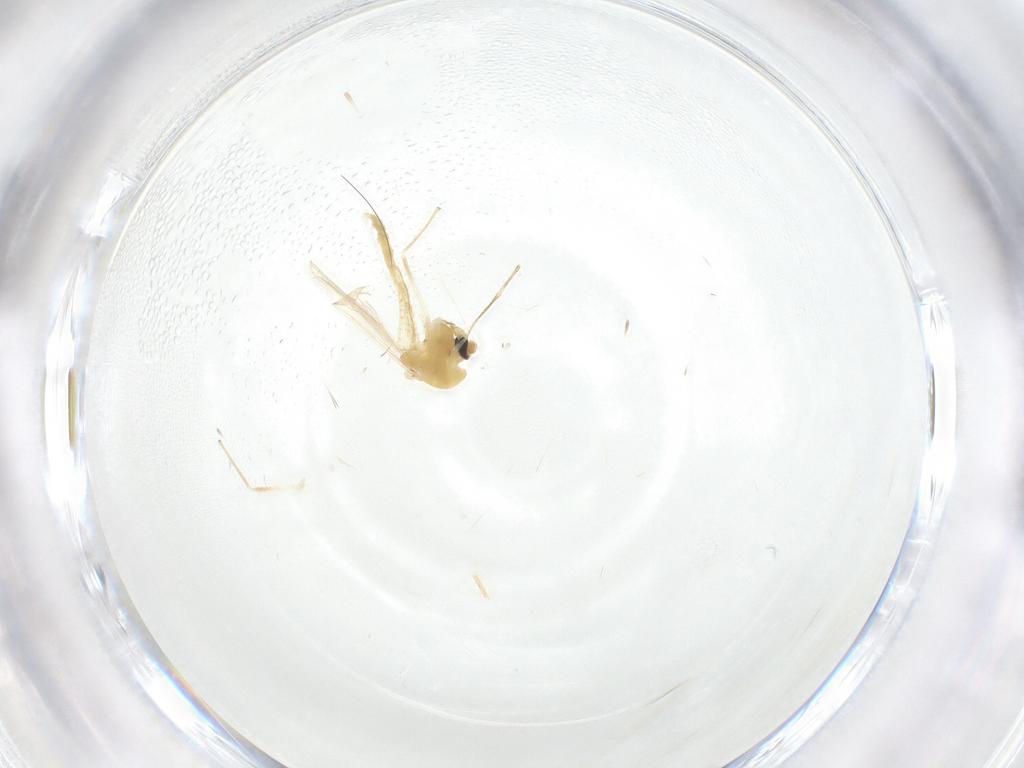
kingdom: Animalia
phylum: Arthropoda
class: Insecta
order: Diptera
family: Chironomidae
